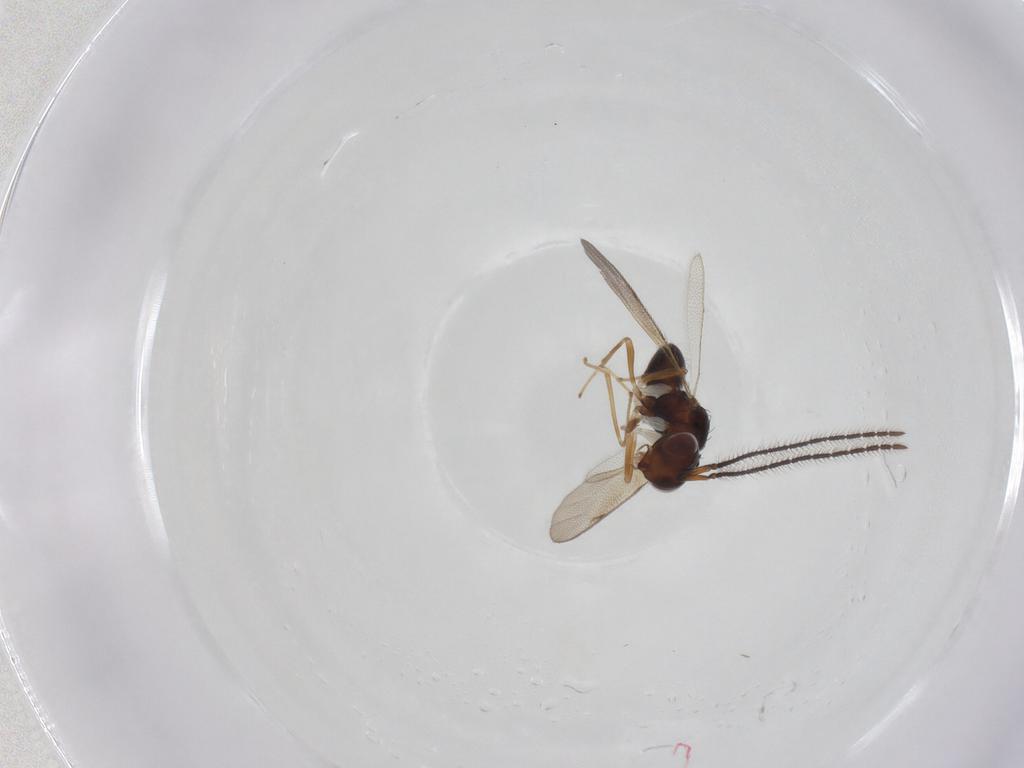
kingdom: Animalia
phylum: Arthropoda
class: Insecta
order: Hymenoptera
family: Diparidae
